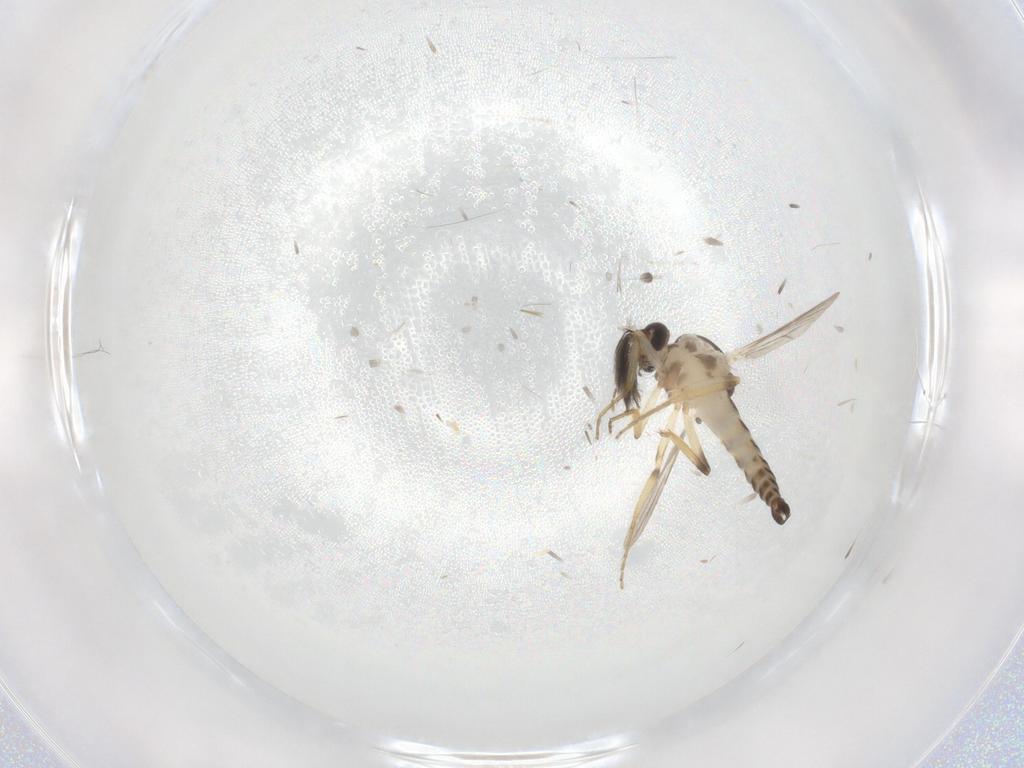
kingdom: Animalia
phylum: Arthropoda
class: Insecta
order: Diptera
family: Ceratopogonidae
